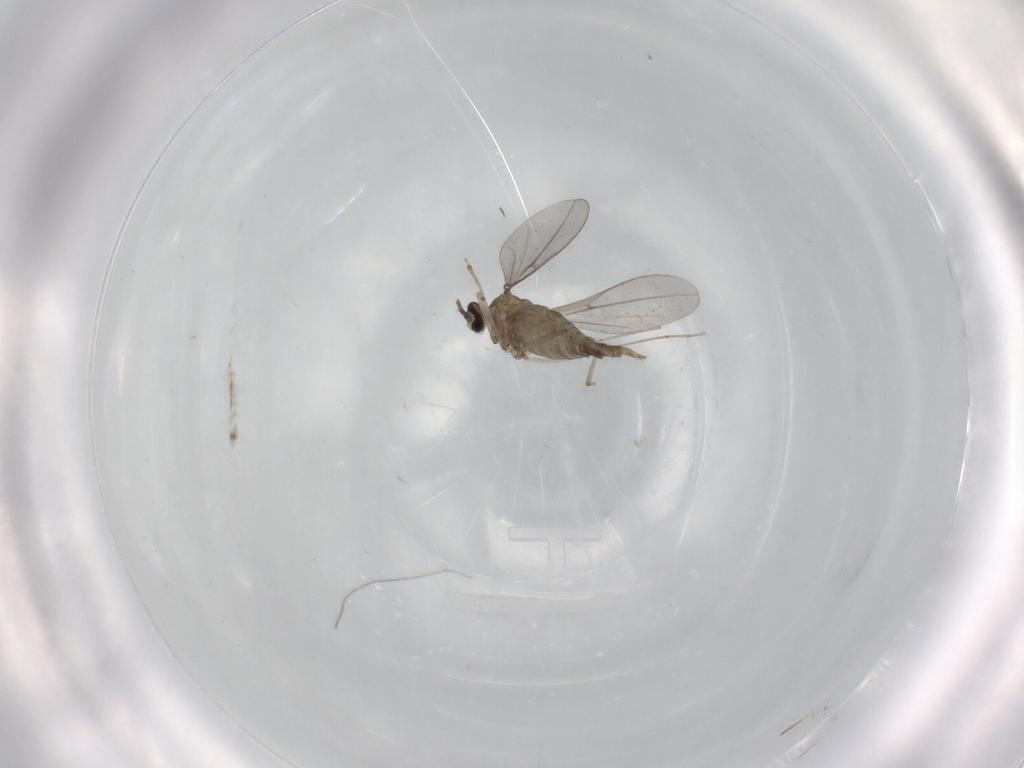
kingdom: Animalia
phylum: Arthropoda
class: Insecta
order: Diptera
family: Cecidomyiidae
